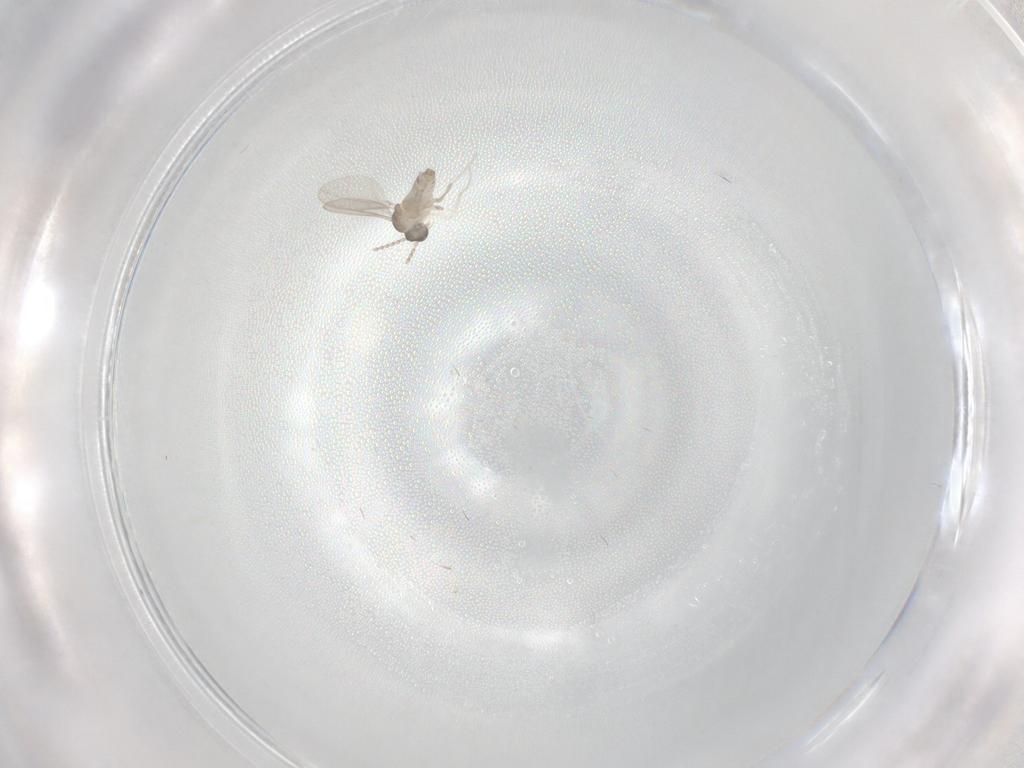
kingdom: Animalia
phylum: Arthropoda
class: Insecta
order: Diptera
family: Cecidomyiidae
